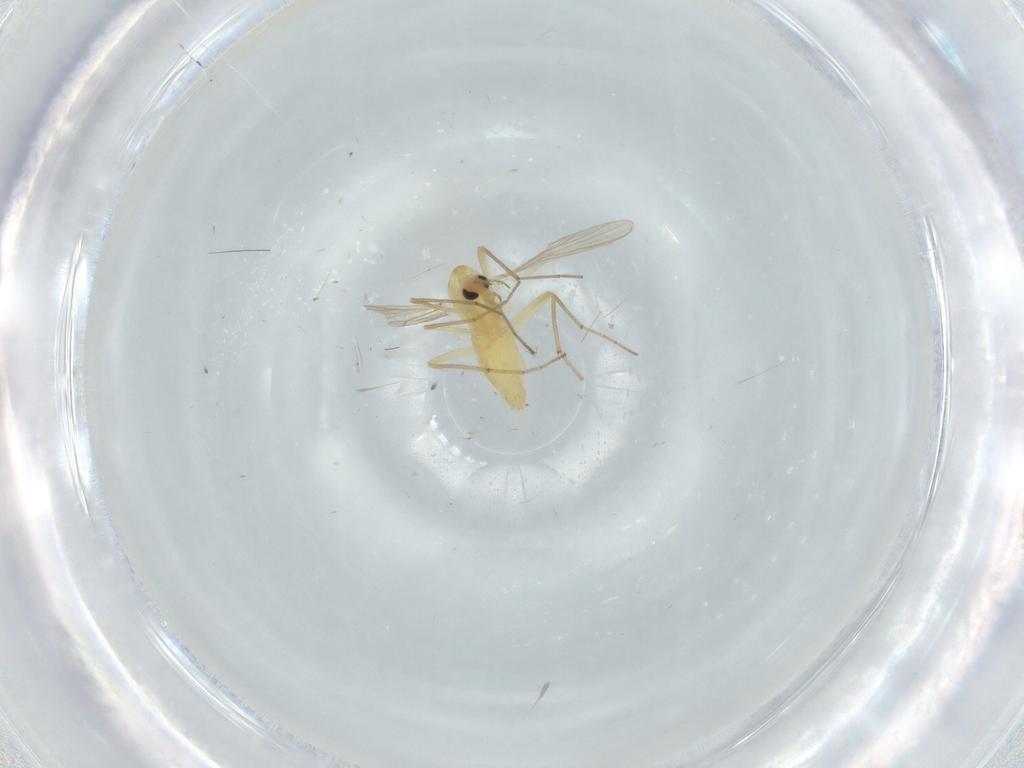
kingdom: Animalia
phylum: Arthropoda
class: Insecta
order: Diptera
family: Chironomidae
